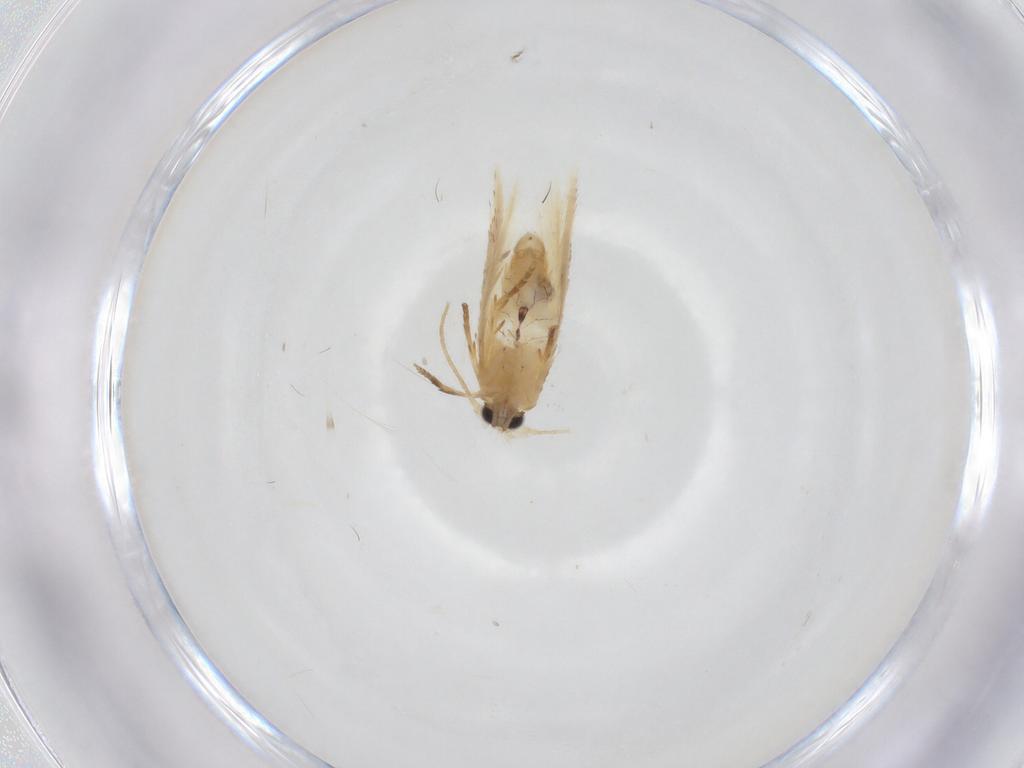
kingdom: Animalia
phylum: Arthropoda
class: Insecta
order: Lepidoptera
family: Nepticulidae
